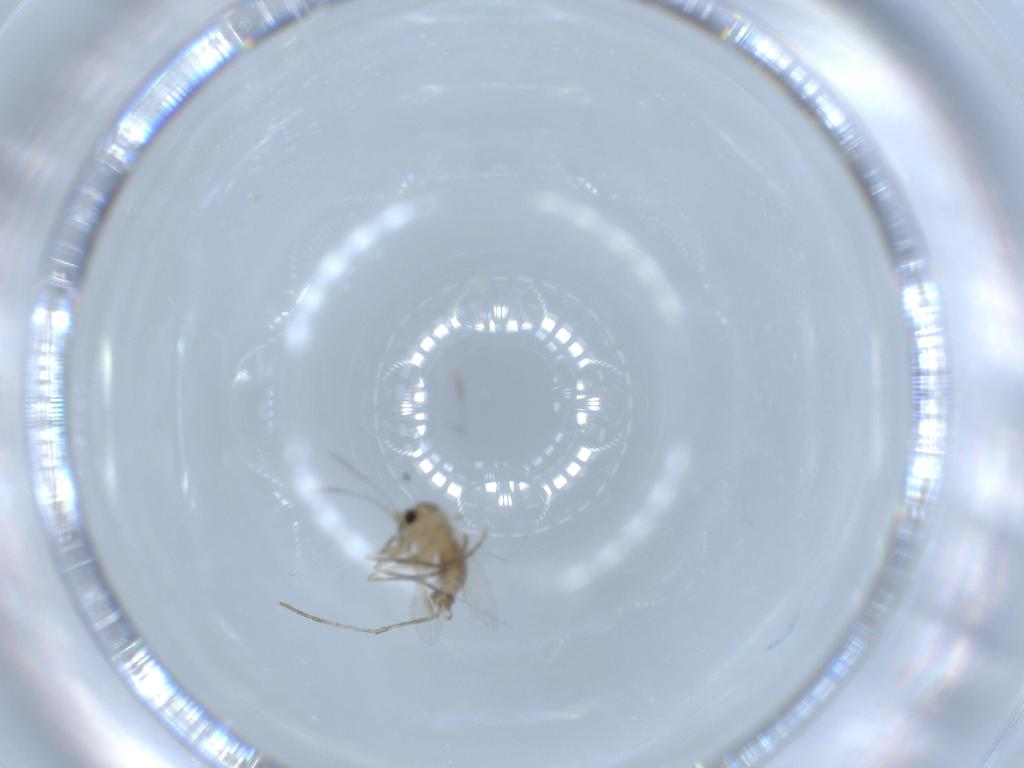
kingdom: Animalia
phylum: Arthropoda
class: Insecta
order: Diptera
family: Psychodidae
